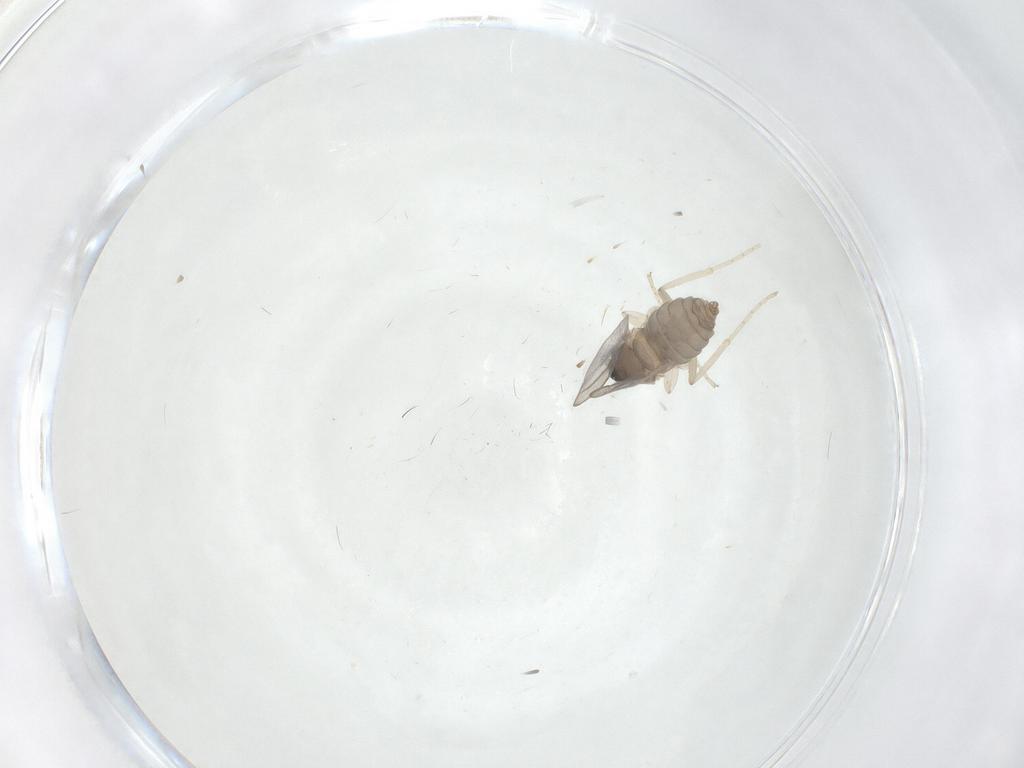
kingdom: Animalia
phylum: Arthropoda
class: Insecta
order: Diptera
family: Cecidomyiidae
